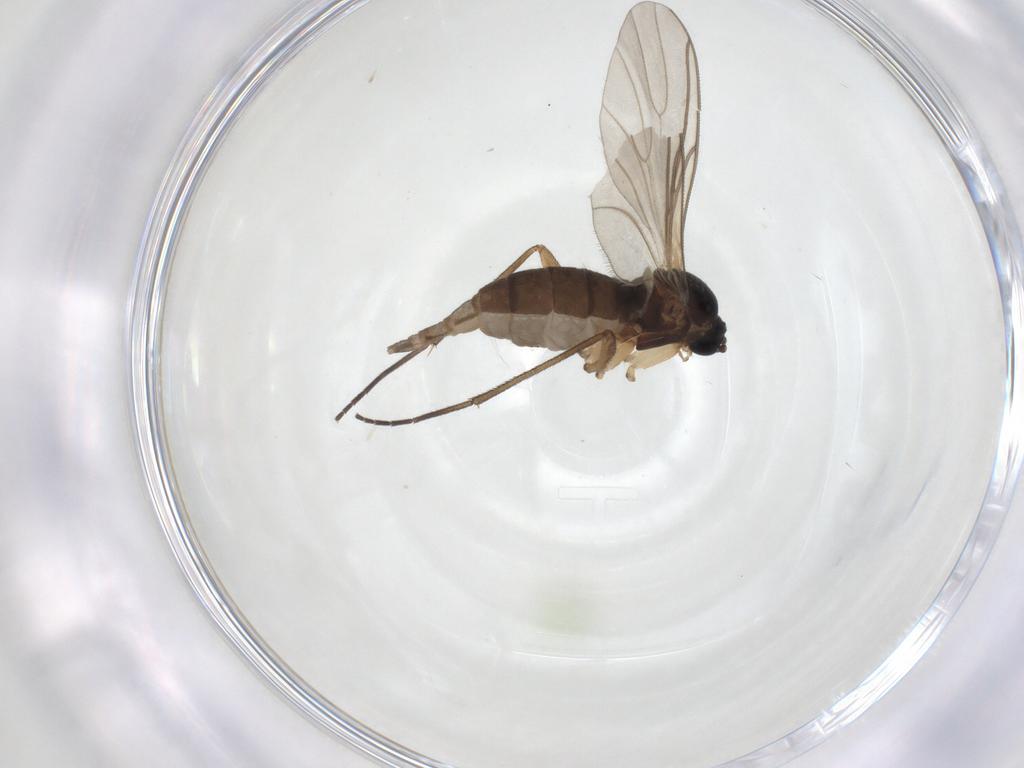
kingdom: Animalia
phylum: Arthropoda
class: Insecta
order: Diptera
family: Sciaridae
